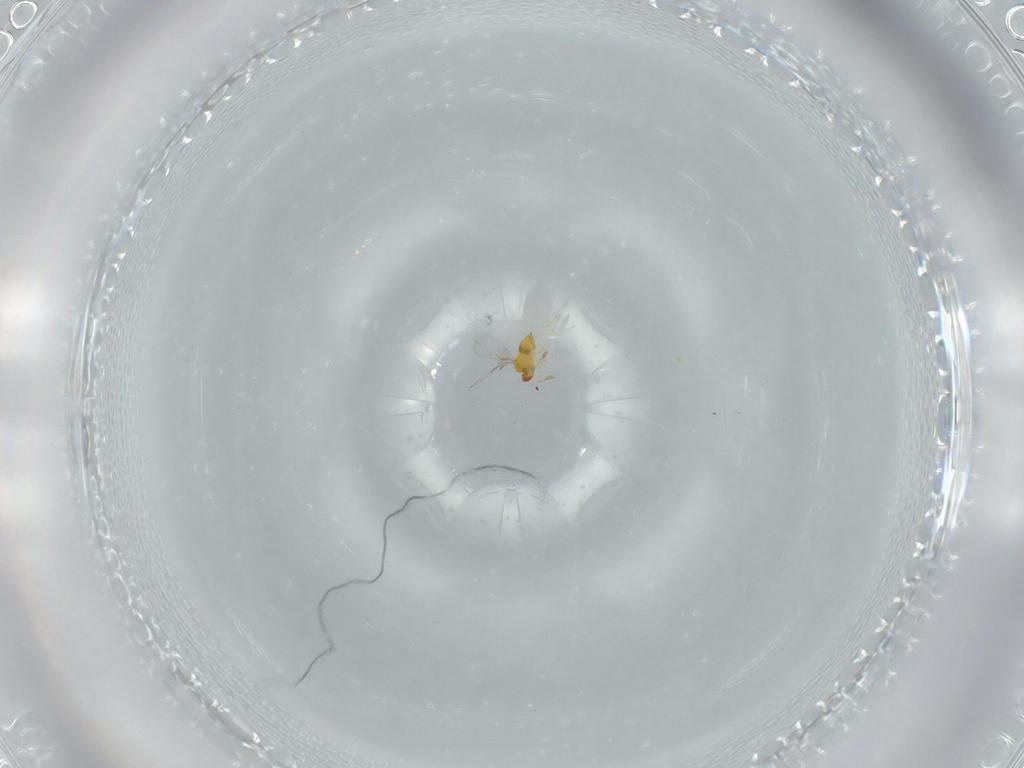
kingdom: Animalia
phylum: Arthropoda
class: Insecta
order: Hymenoptera
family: Trichogrammatidae
